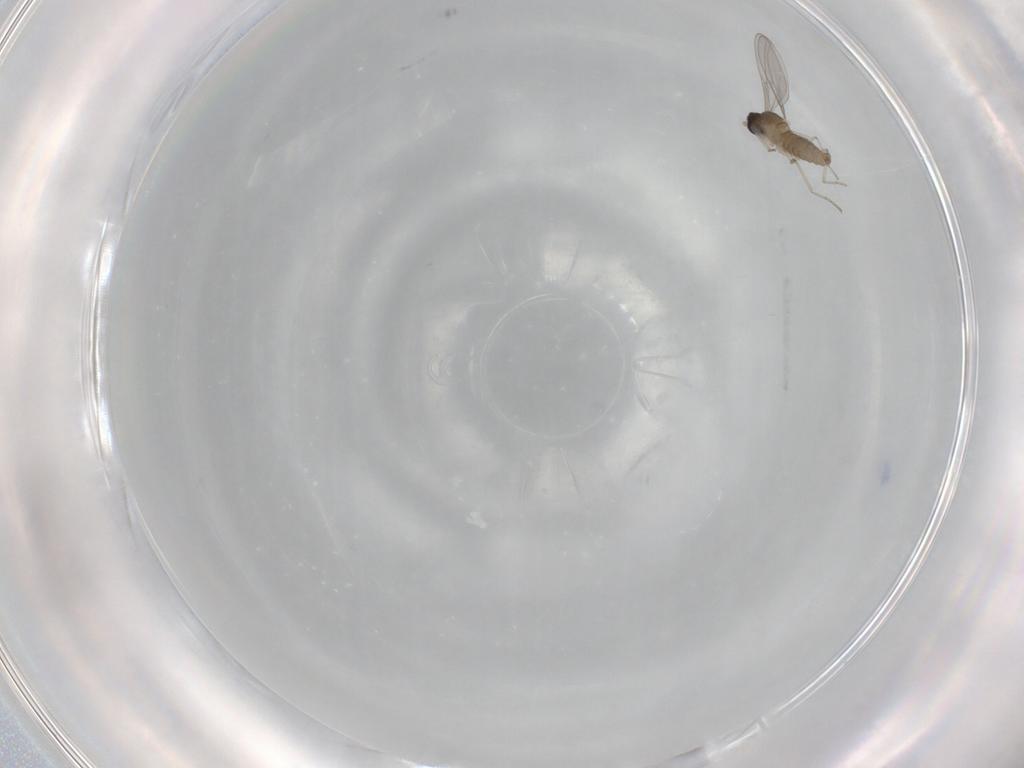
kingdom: Animalia
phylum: Arthropoda
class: Insecta
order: Diptera
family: Cecidomyiidae
